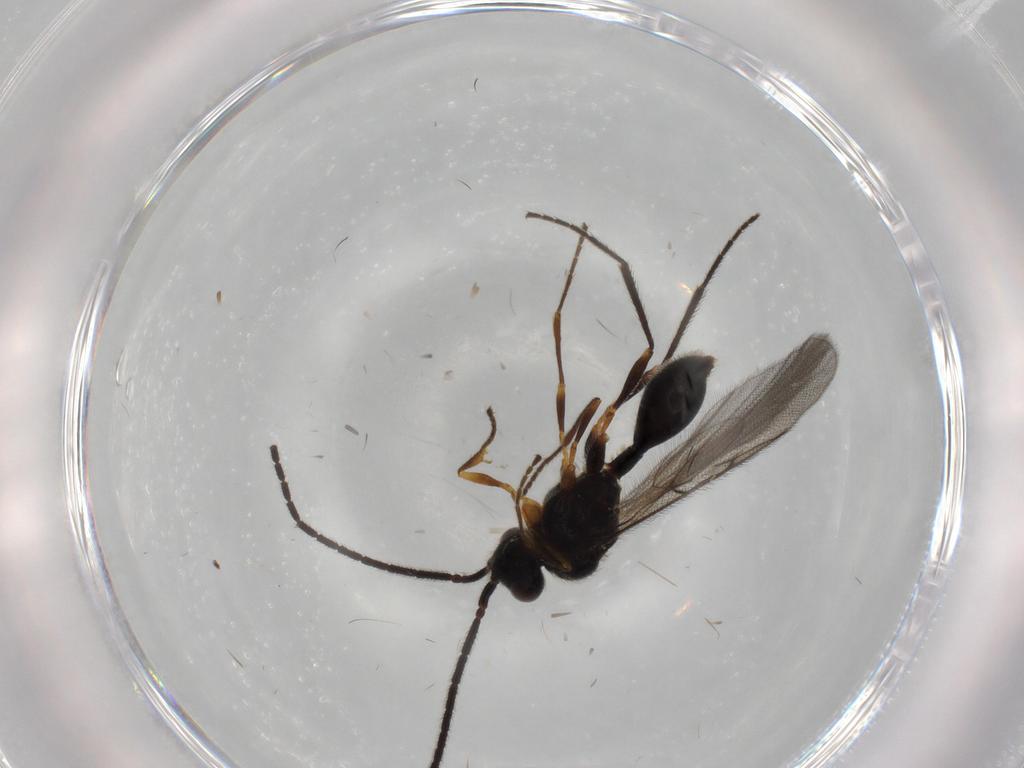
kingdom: Animalia
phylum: Arthropoda
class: Insecta
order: Hymenoptera
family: Diapriidae
